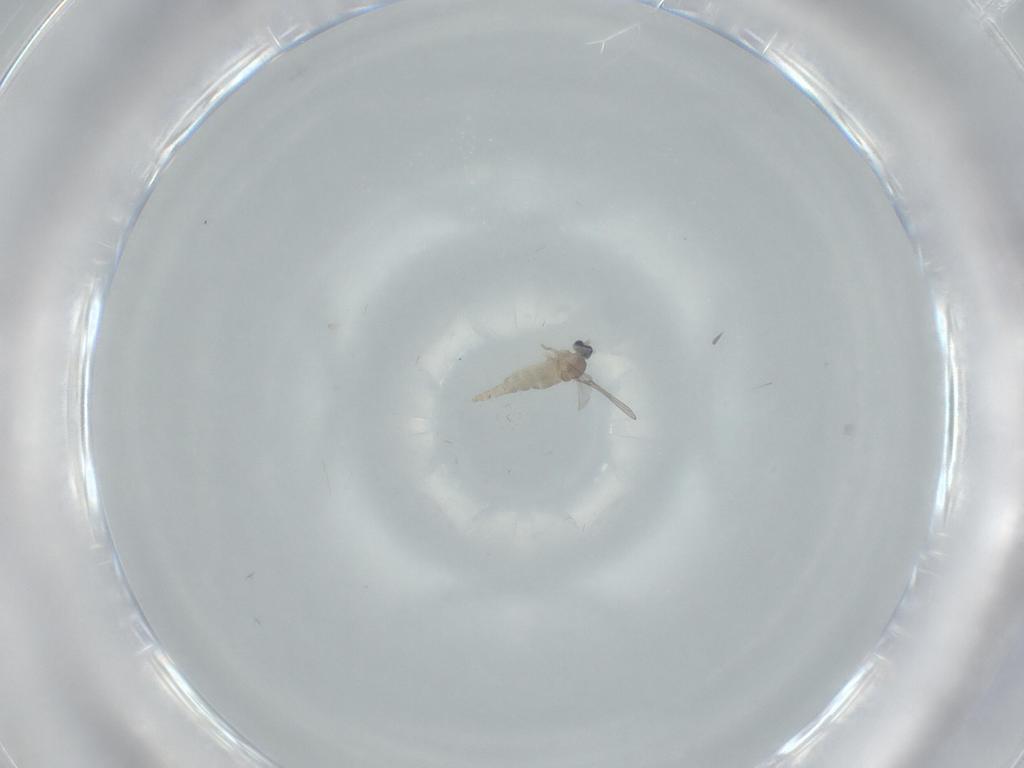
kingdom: Animalia
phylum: Arthropoda
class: Insecta
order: Diptera
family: Cecidomyiidae
